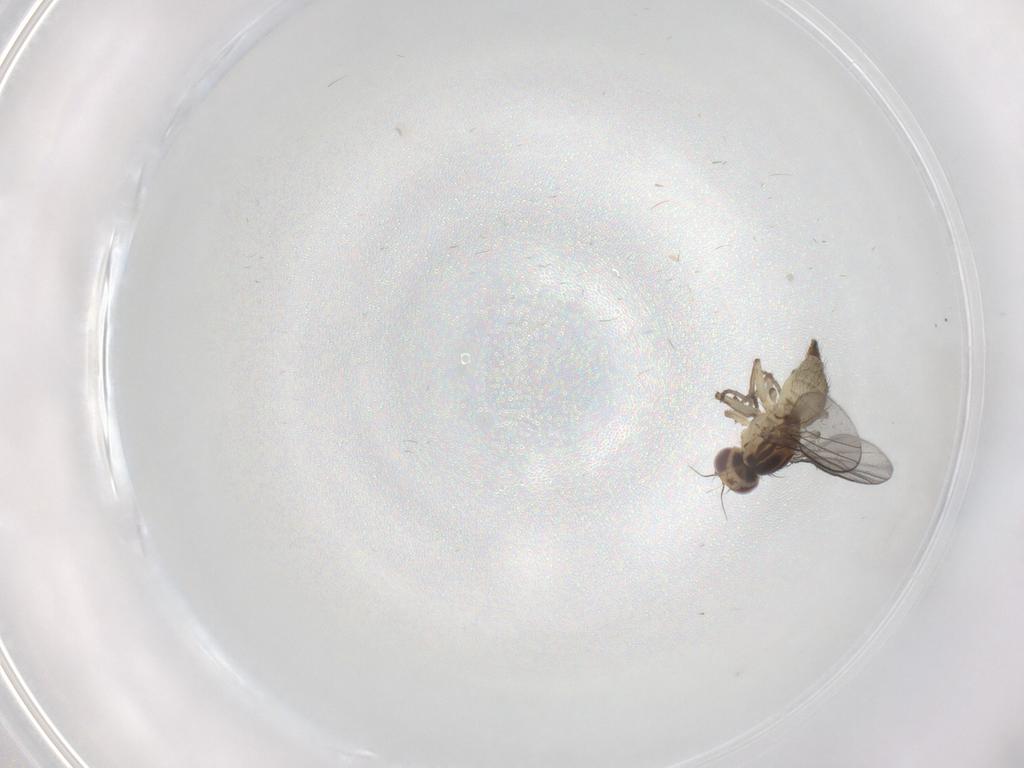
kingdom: Animalia
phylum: Arthropoda
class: Insecta
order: Diptera
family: Agromyzidae
